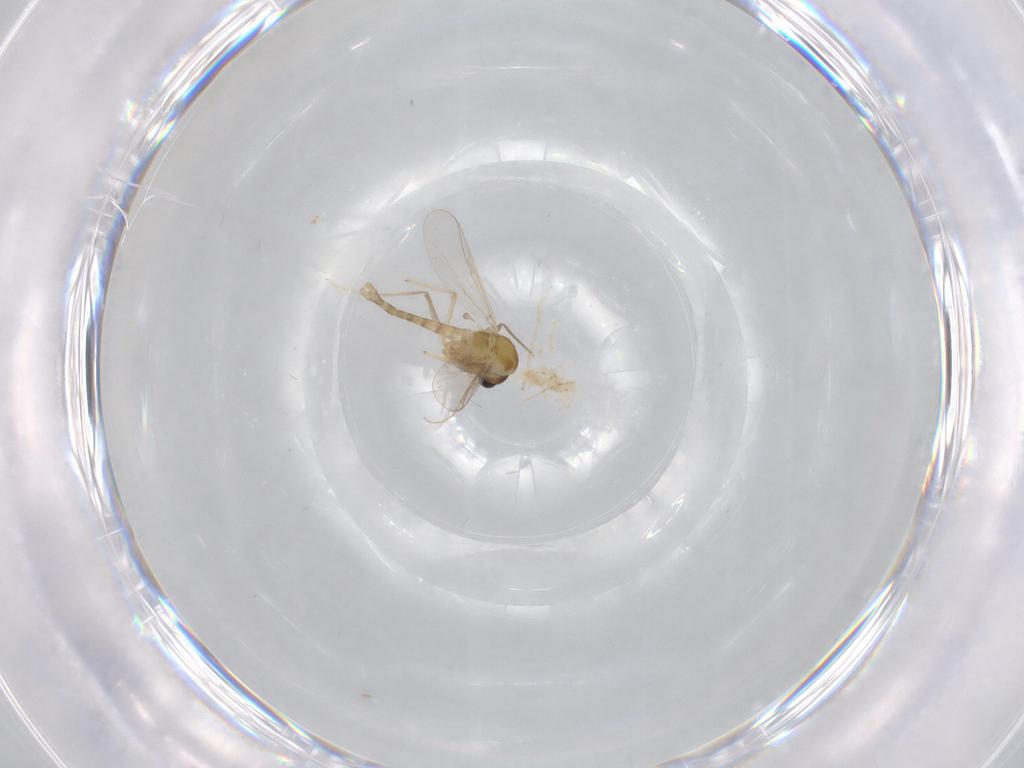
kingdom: Animalia
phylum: Arthropoda
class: Insecta
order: Diptera
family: Chironomidae
